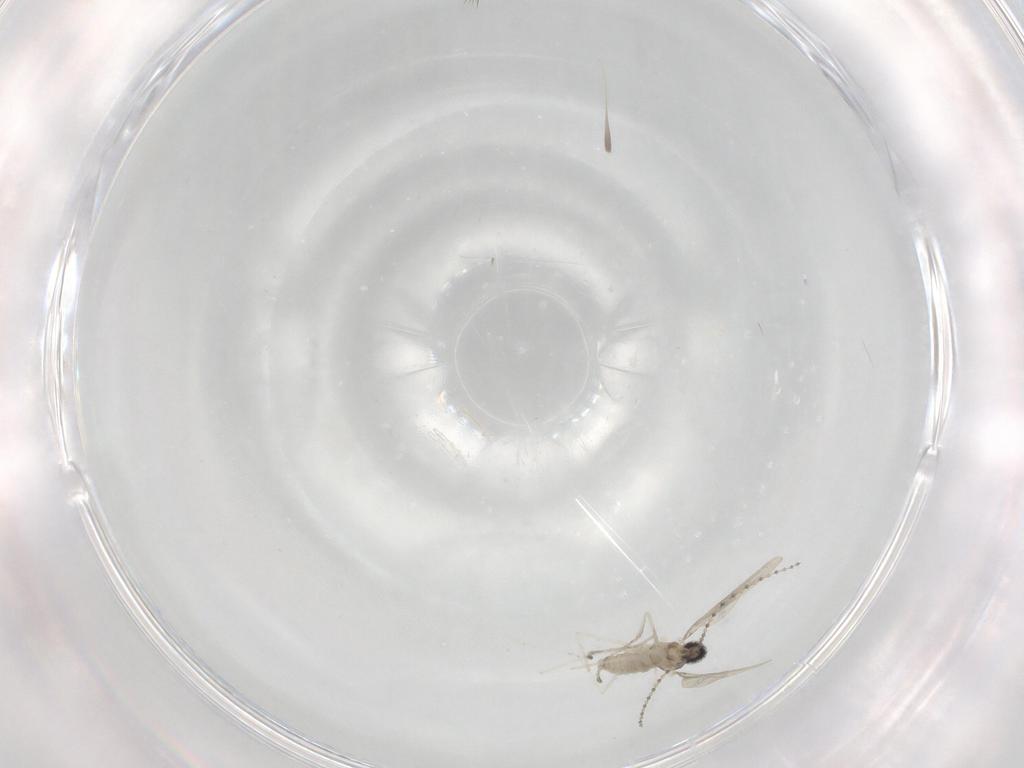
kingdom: Animalia
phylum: Arthropoda
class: Insecta
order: Diptera
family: Cecidomyiidae
